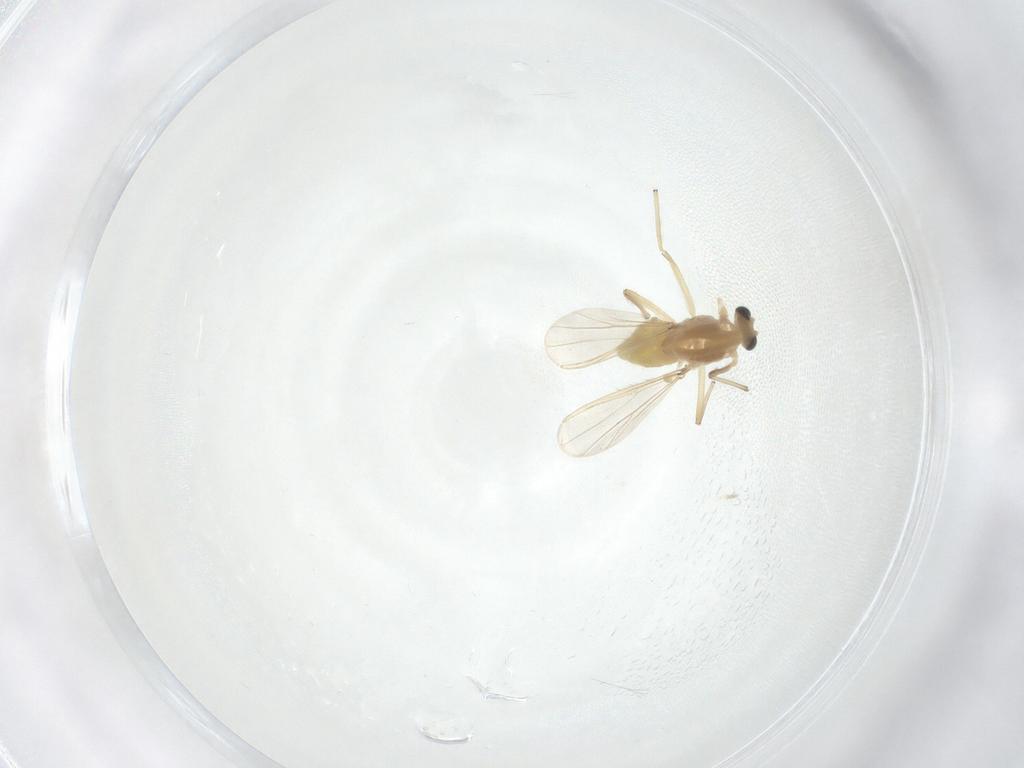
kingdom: Animalia
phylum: Arthropoda
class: Insecta
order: Diptera
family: Chironomidae
